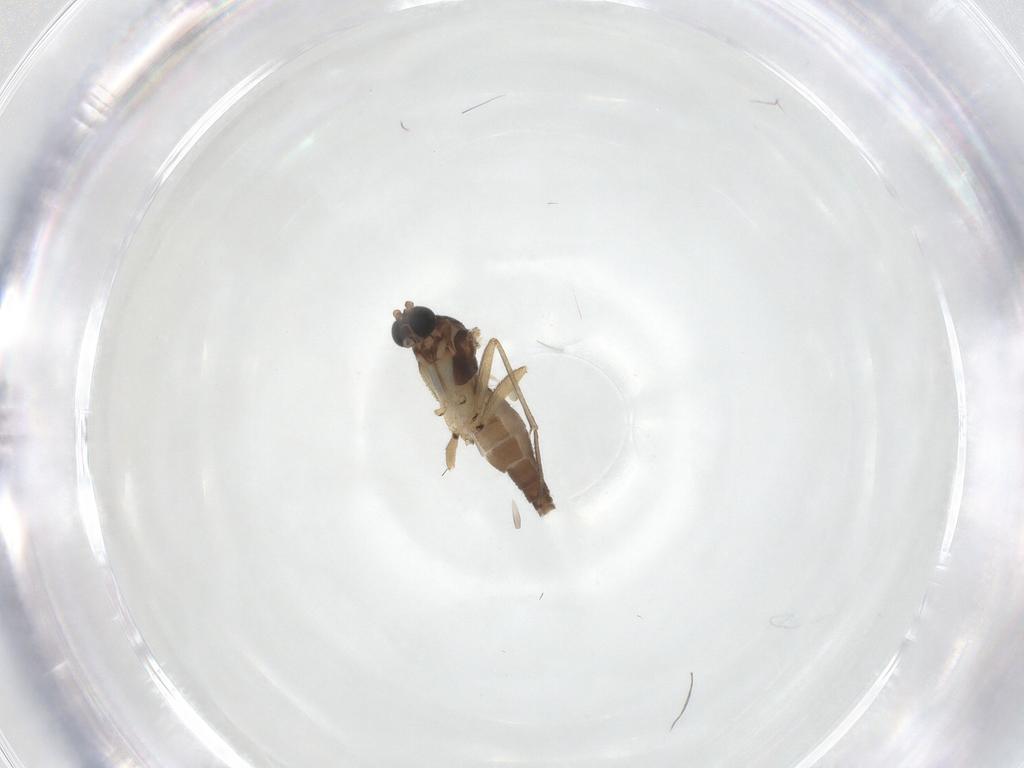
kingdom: Animalia
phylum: Arthropoda
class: Insecta
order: Diptera
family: Sciaridae
